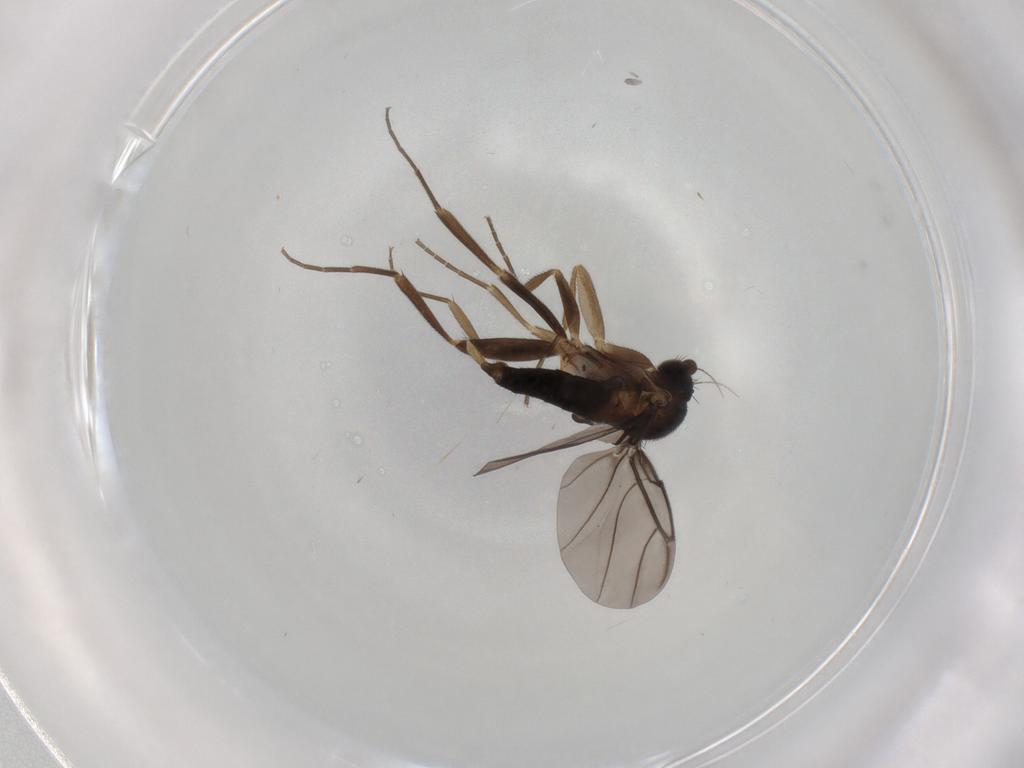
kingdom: Animalia
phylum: Arthropoda
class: Insecta
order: Diptera
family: Phoridae
